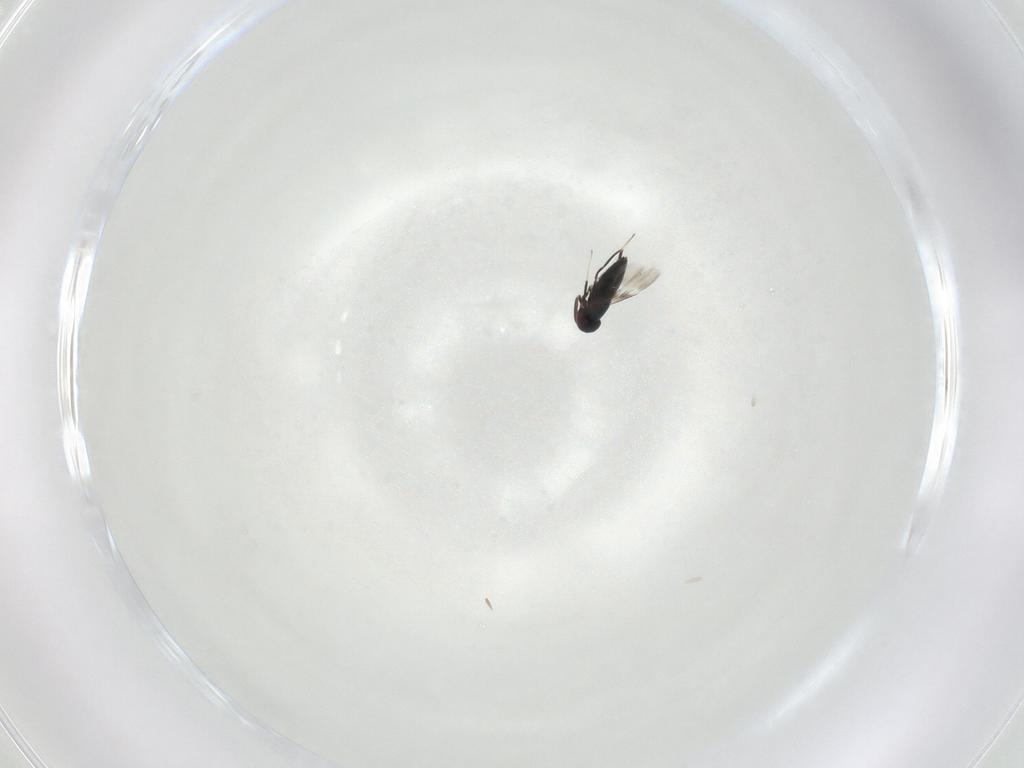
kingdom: Animalia
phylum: Arthropoda
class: Insecta
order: Hymenoptera
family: Signiphoridae
